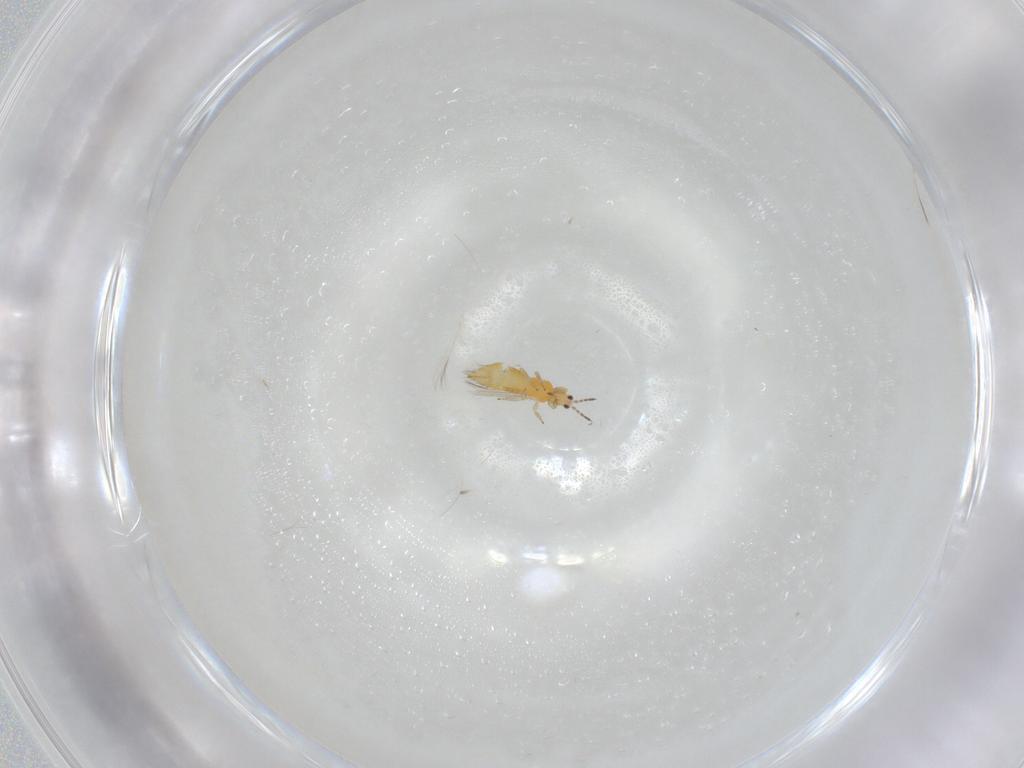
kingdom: Animalia
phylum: Arthropoda
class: Insecta
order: Thysanoptera
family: Thripidae
